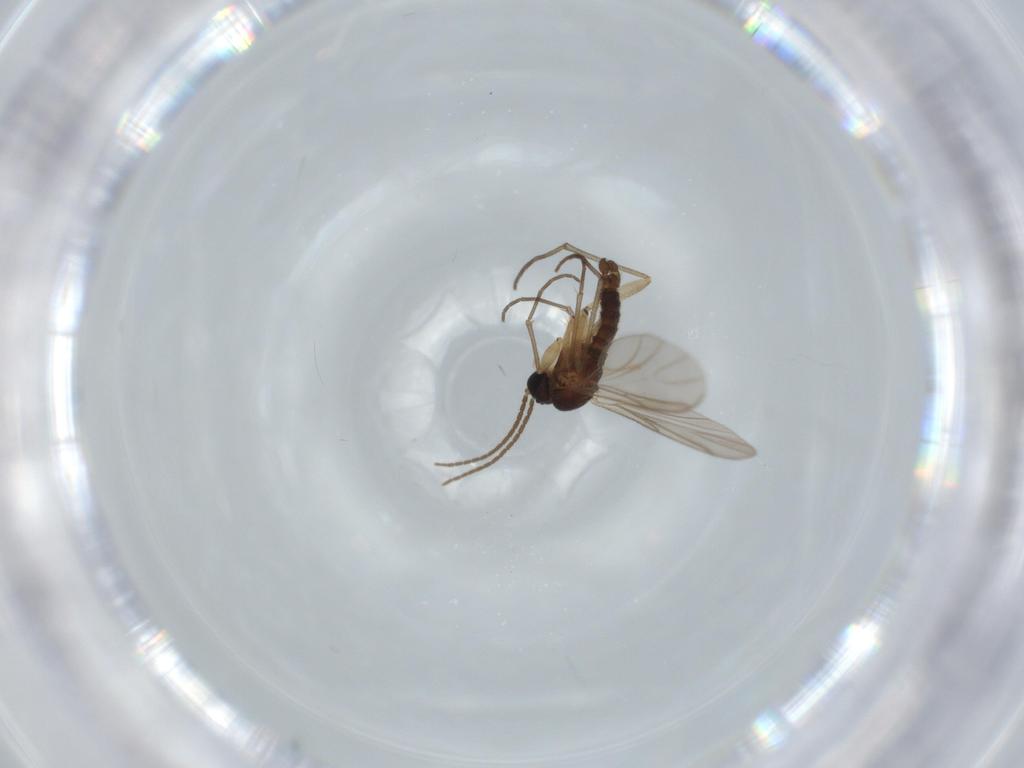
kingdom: Animalia
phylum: Arthropoda
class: Insecta
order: Diptera
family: Sciaridae
